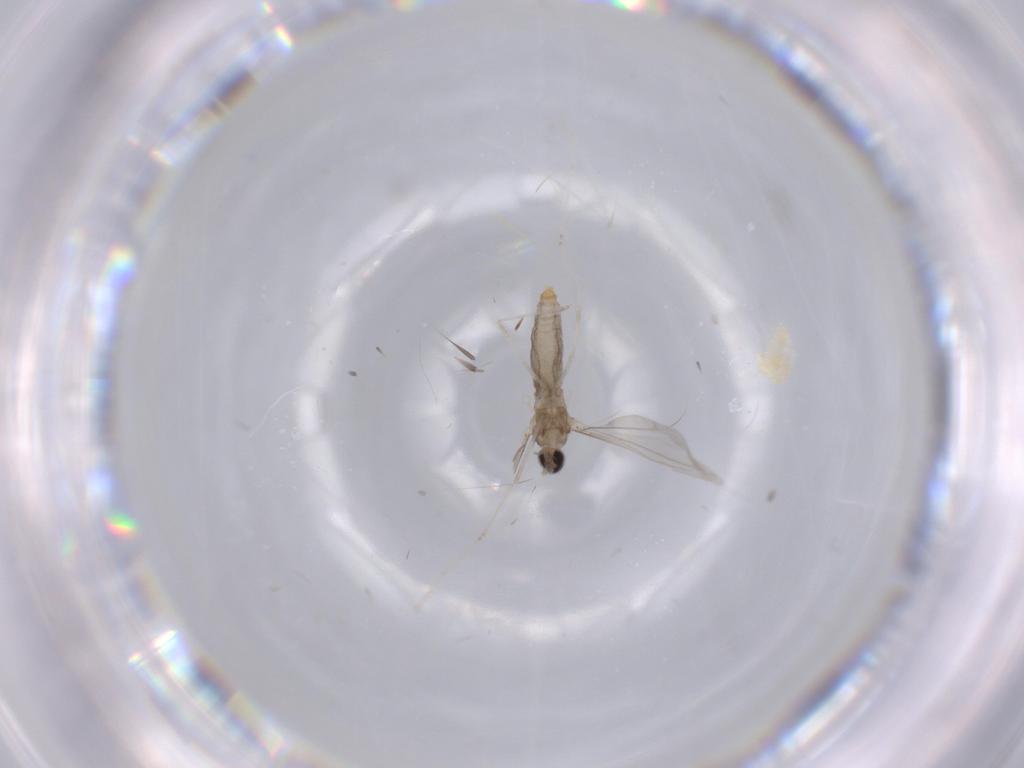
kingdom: Animalia
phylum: Arthropoda
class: Insecta
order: Diptera
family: Cecidomyiidae
